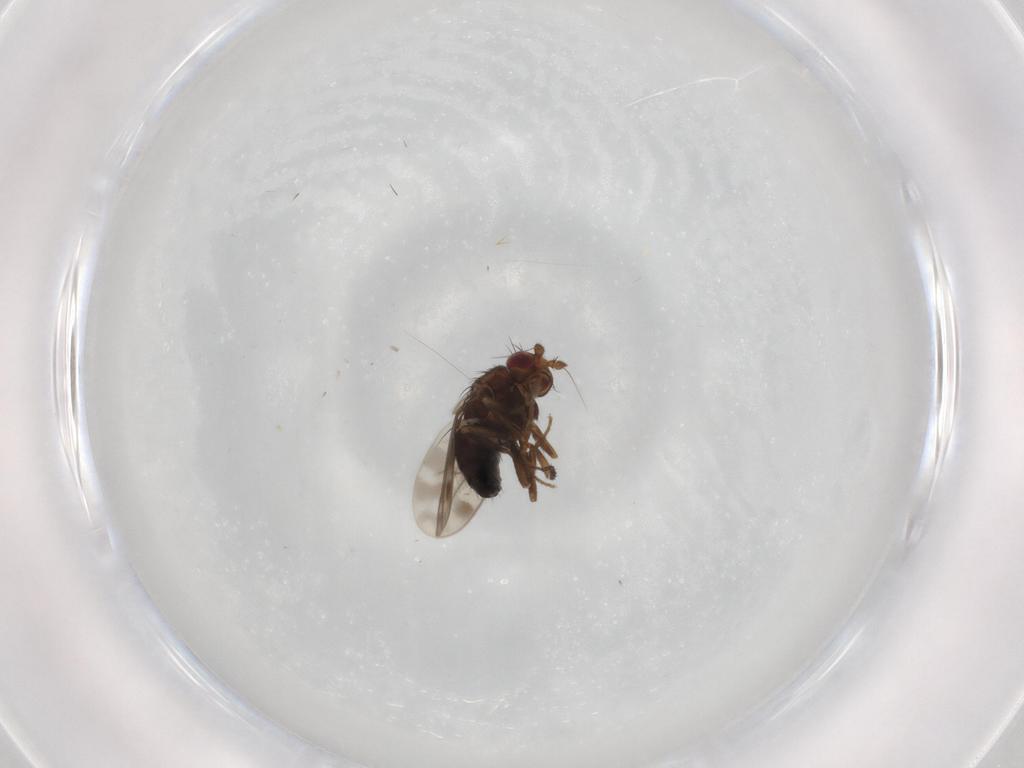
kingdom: Animalia
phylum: Arthropoda
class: Insecta
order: Diptera
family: Sphaeroceridae
